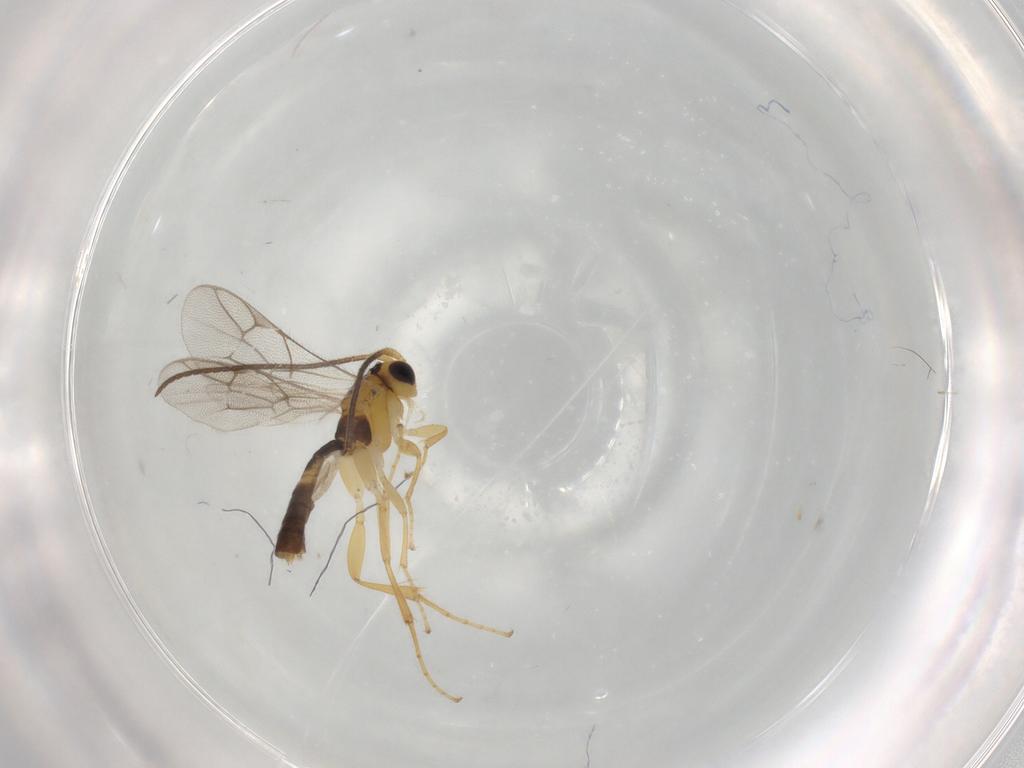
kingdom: Animalia
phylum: Arthropoda
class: Insecta
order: Hymenoptera
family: Ichneumonidae
